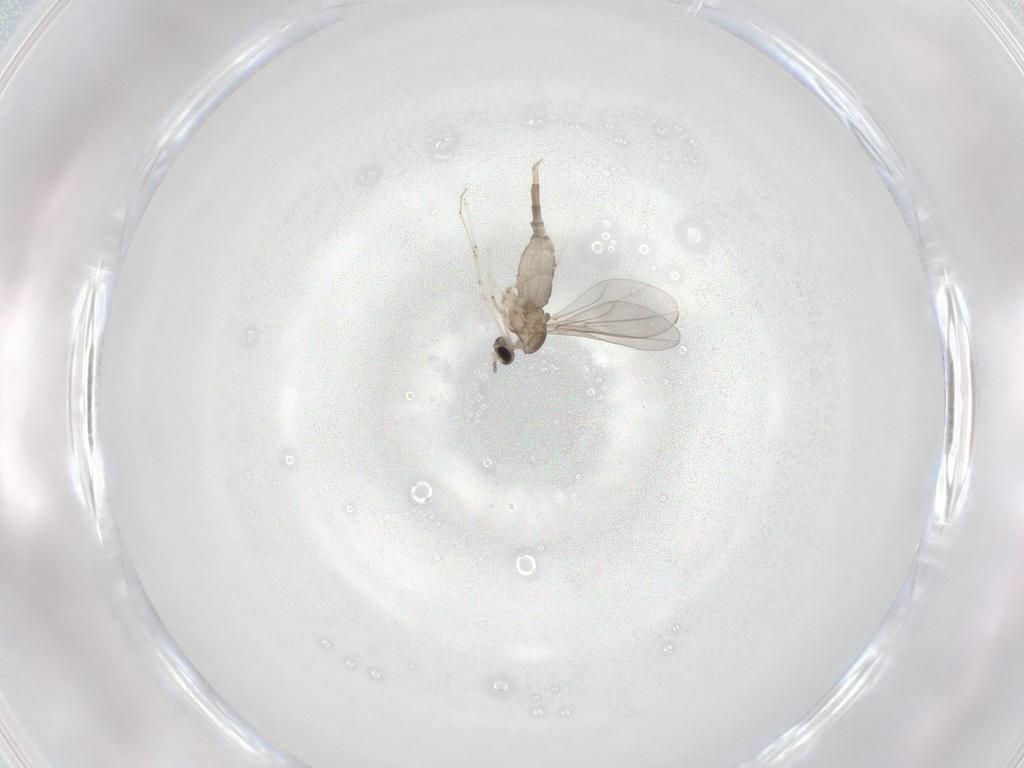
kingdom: Animalia
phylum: Arthropoda
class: Insecta
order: Diptera
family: Cecidomyiidae
